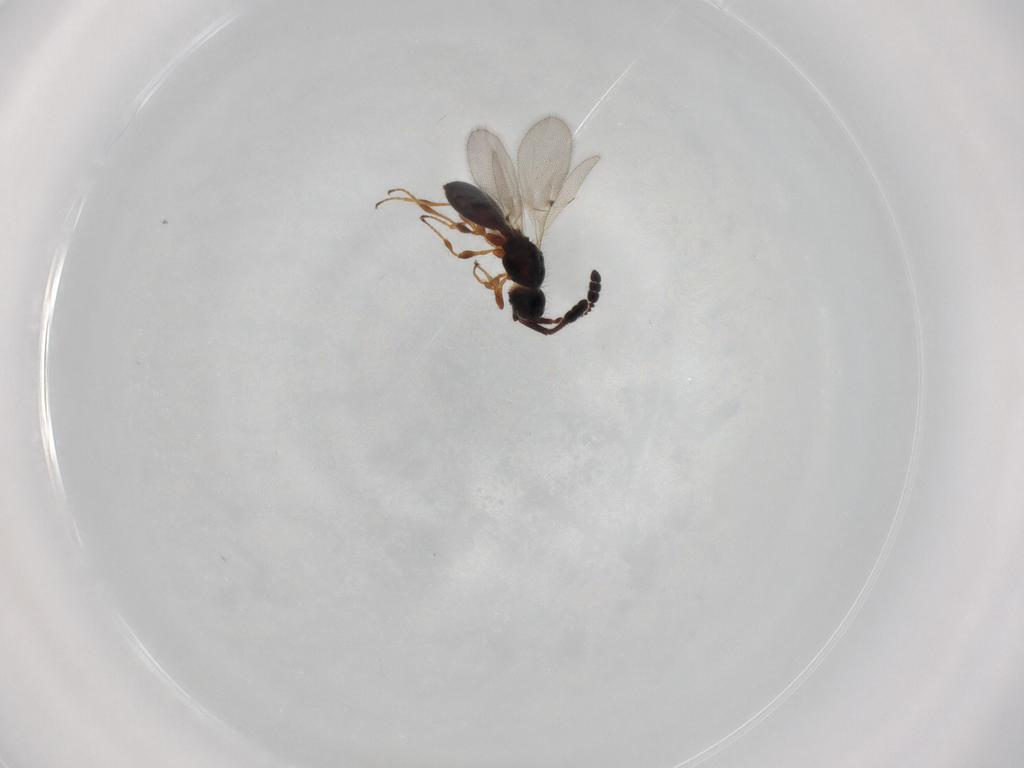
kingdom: Animalia
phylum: Arthropoda
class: Insecta
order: Hymenoptera
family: Diapriidae
